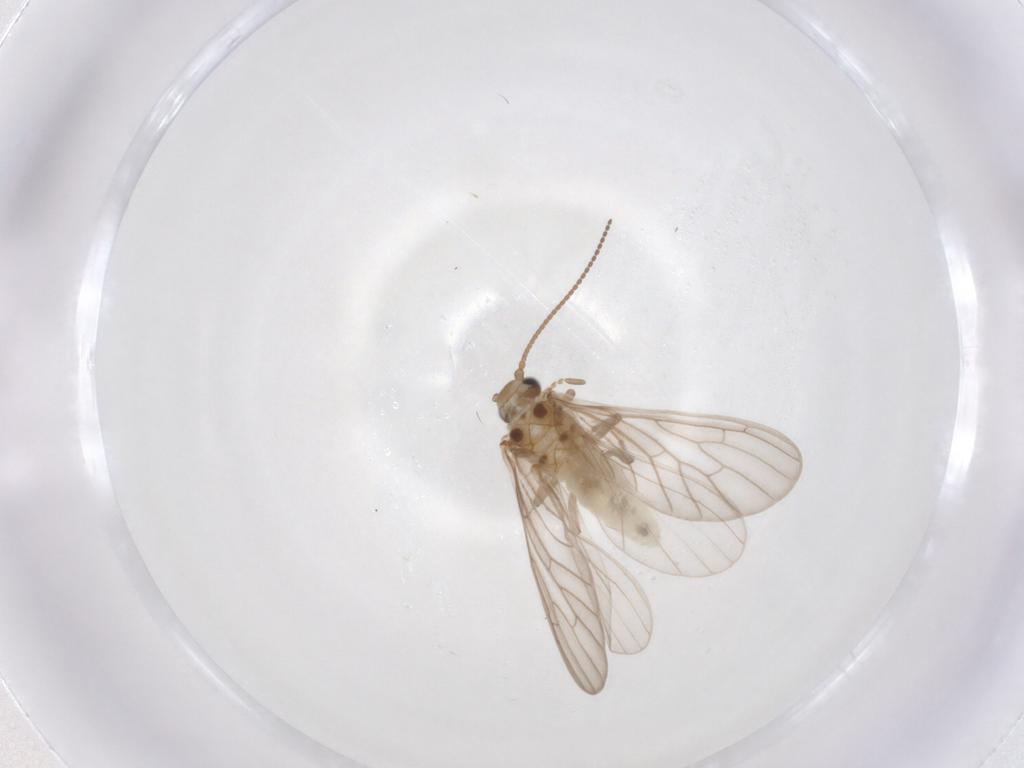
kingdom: Animalia
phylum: Arthropoda
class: Insecta
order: Neuroptera
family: Coniopterygidae
